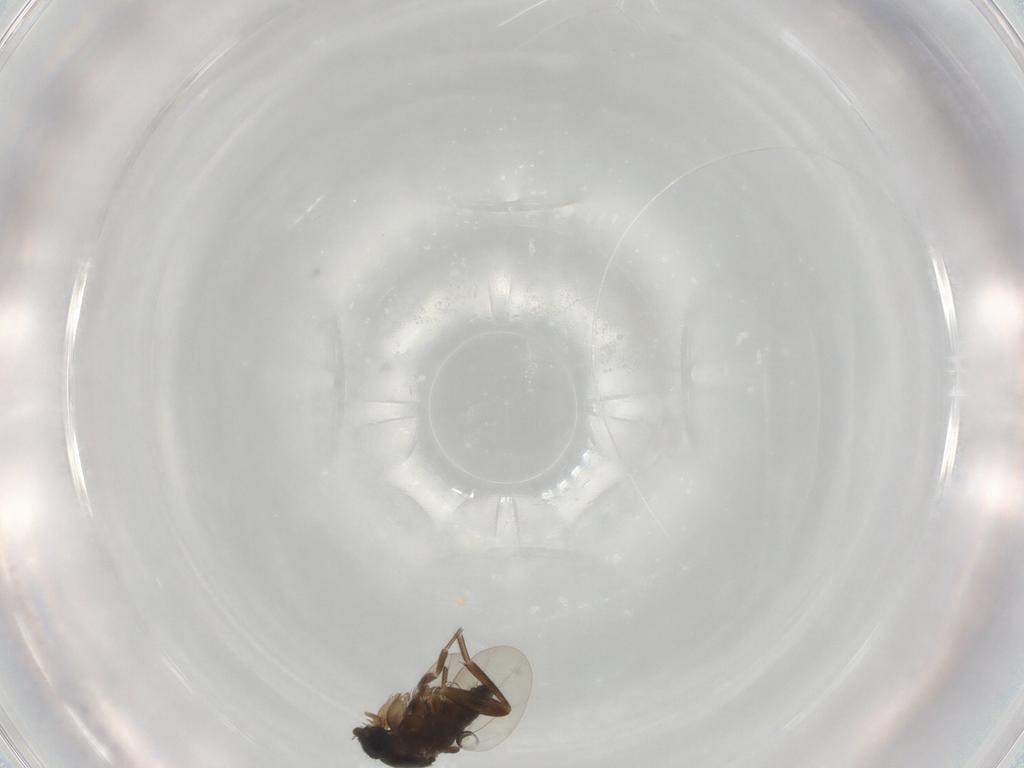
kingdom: Animalia
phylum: Arthropoda
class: Insecta
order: Diptera
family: Phoridae
